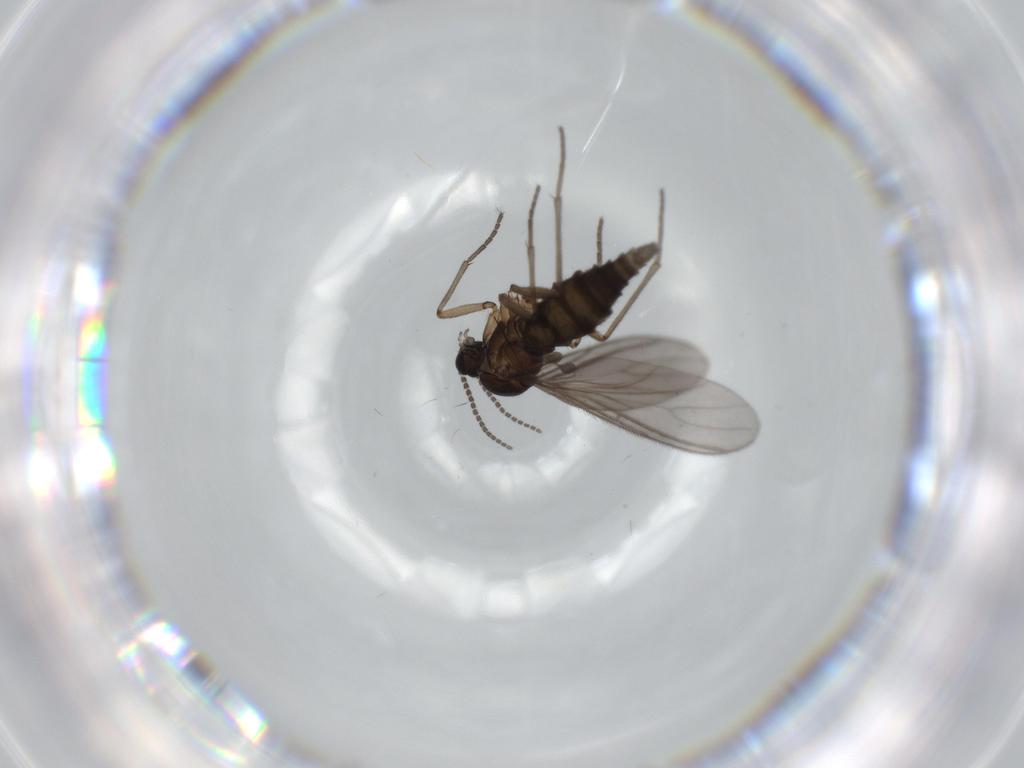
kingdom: Animalia
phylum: Arthropoda
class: Insecta
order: Diptera
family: Sciaridae
